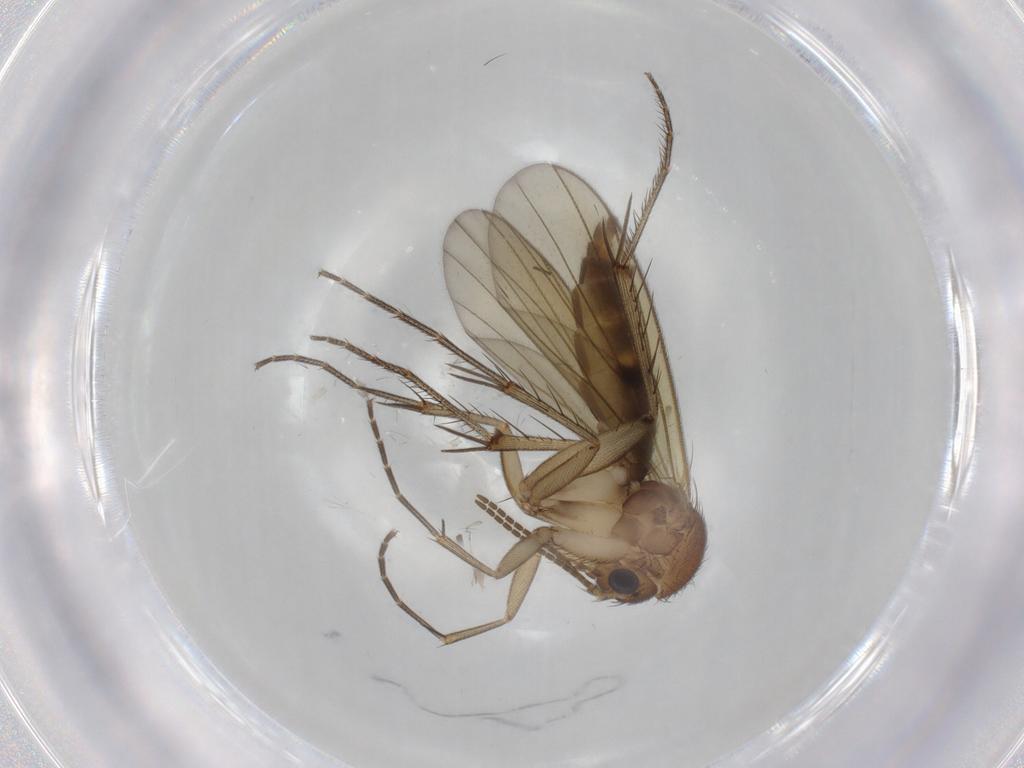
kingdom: Animalia
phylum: Arthropoda
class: Insecta
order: Diptera
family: Mycetophilidae
